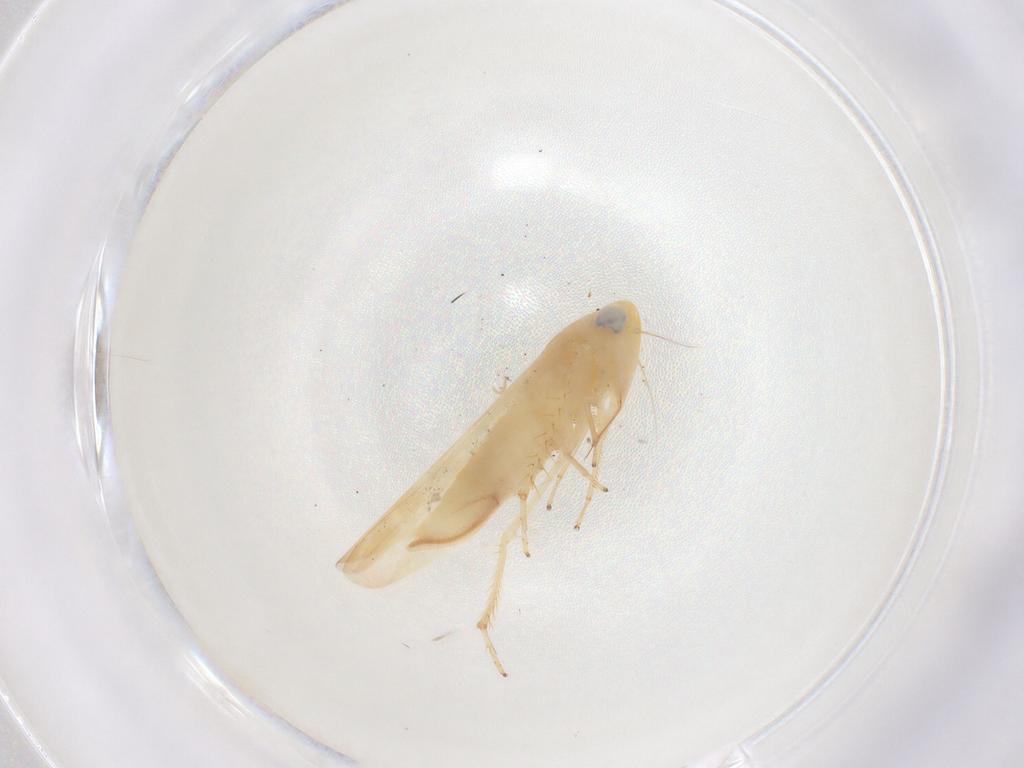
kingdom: Animalia
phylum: Arthropoda
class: Insecta
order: Hemiptera
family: Cicadellidae
